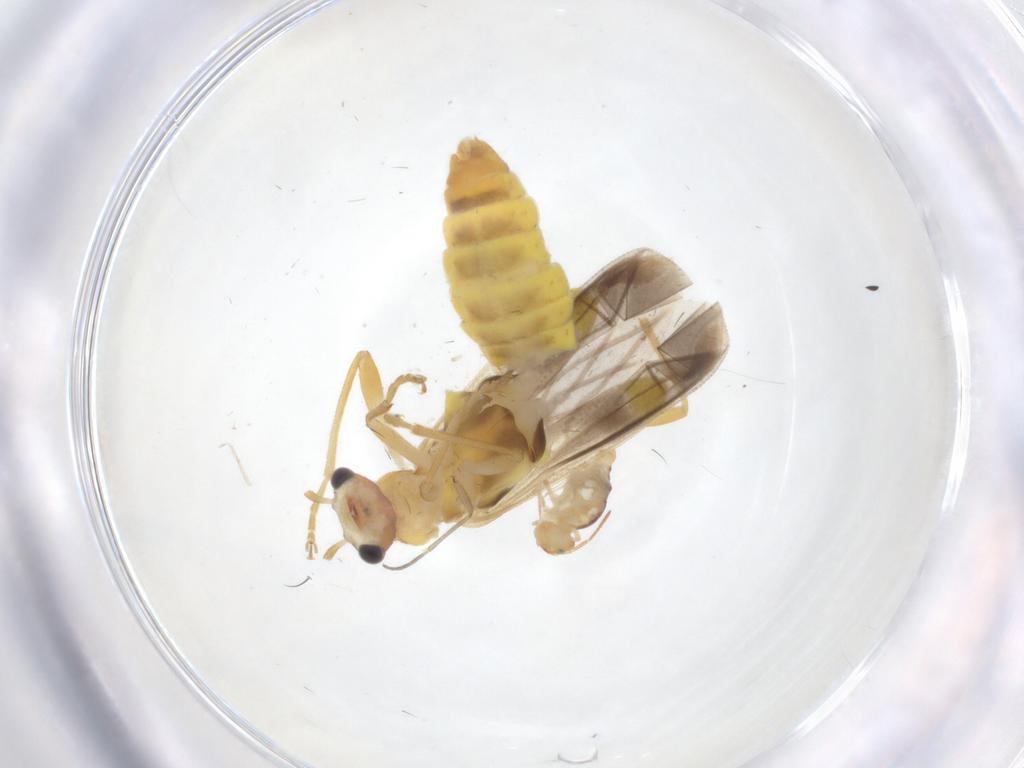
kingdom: Animalia
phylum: Arthropoda
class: Insecta
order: Coleoptera
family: Cantharidae
